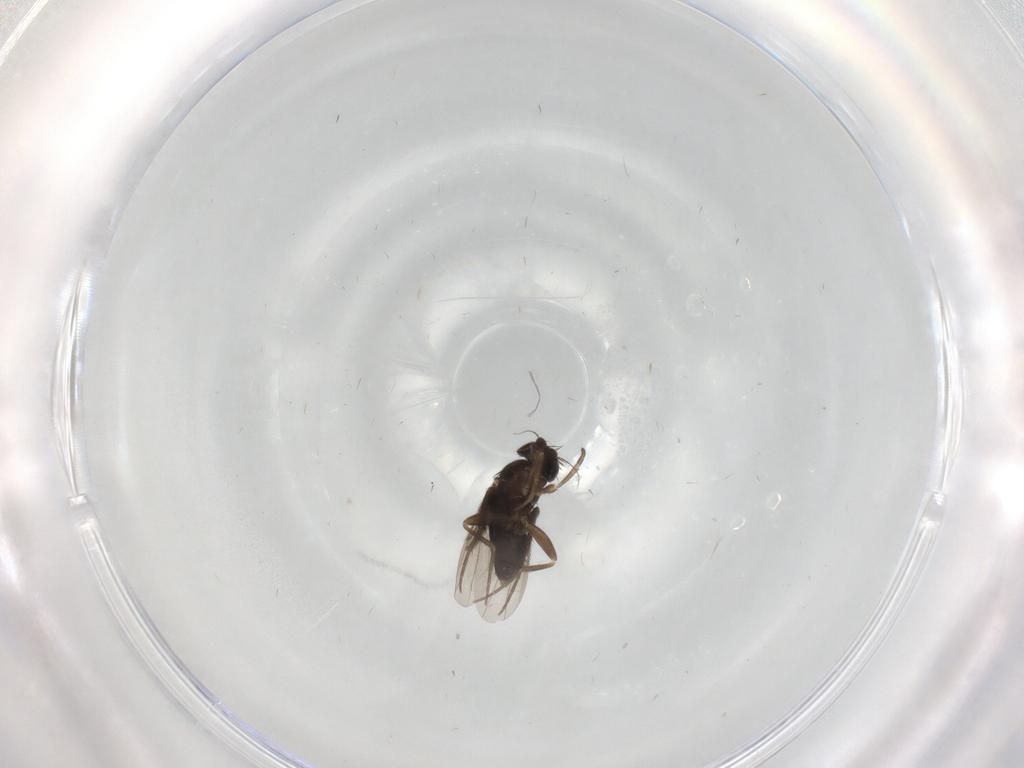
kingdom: Animalia
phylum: Arthropoda
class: Insecta
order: Diptera
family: Ceratopogonidae
